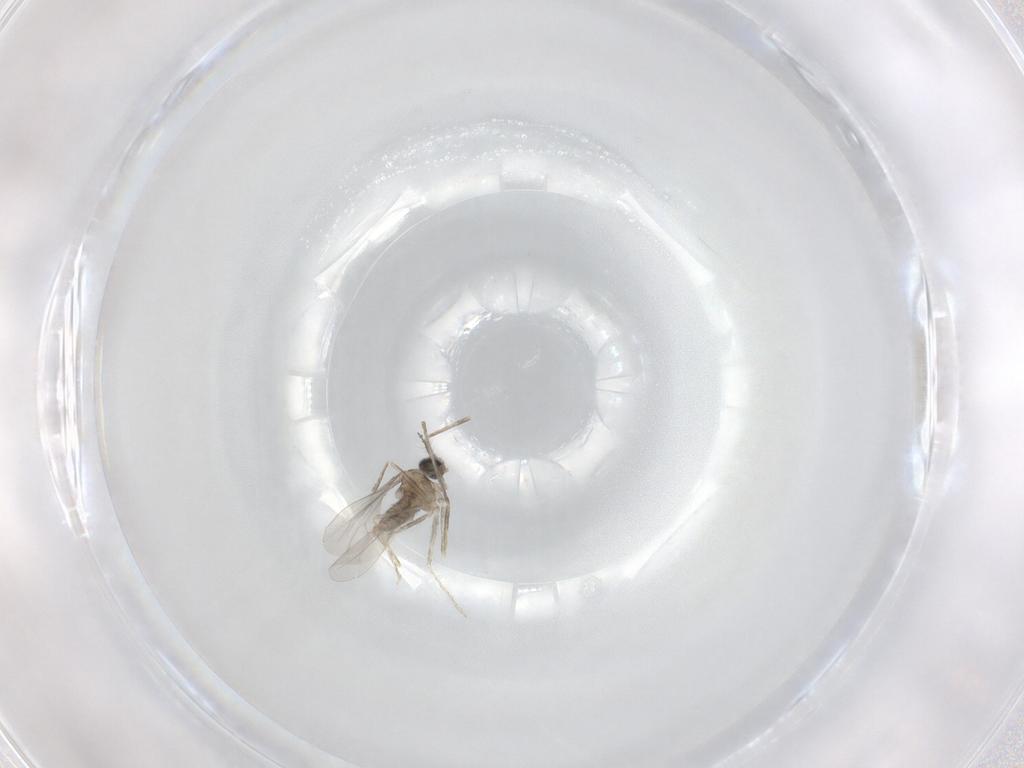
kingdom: Animalia
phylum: Arthropoda
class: Insecta
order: Diptera
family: Cecidomyiidae
